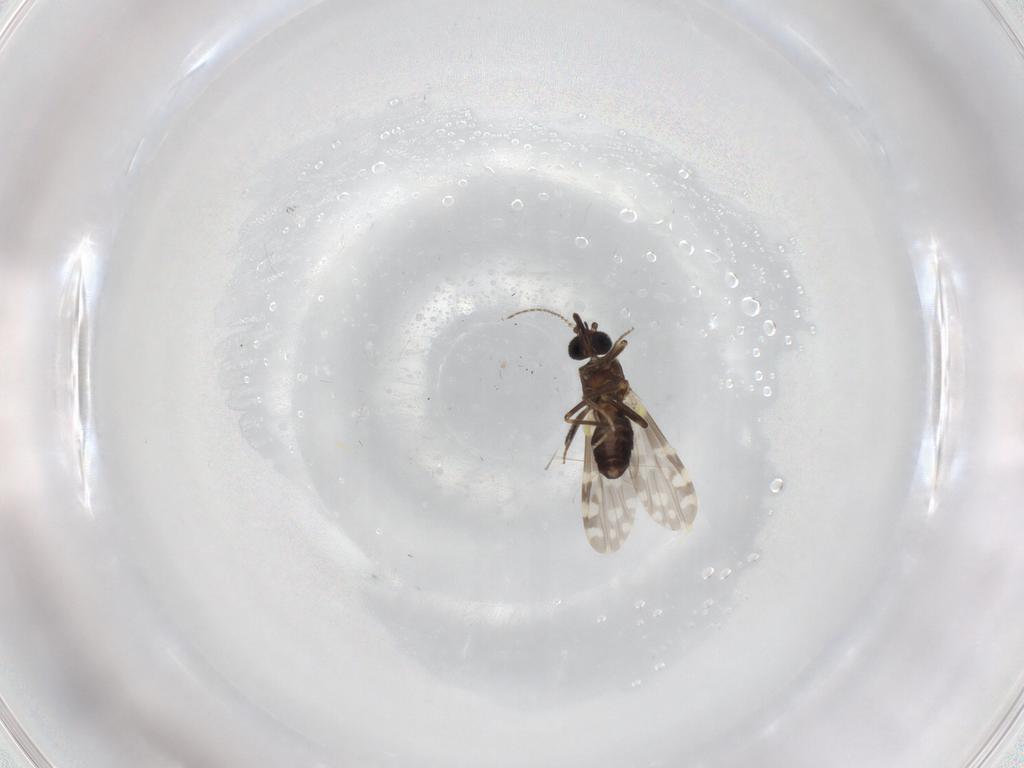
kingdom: Animalia
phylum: Arthropoda
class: Insecta
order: Diptera
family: Ceratopogonidae
